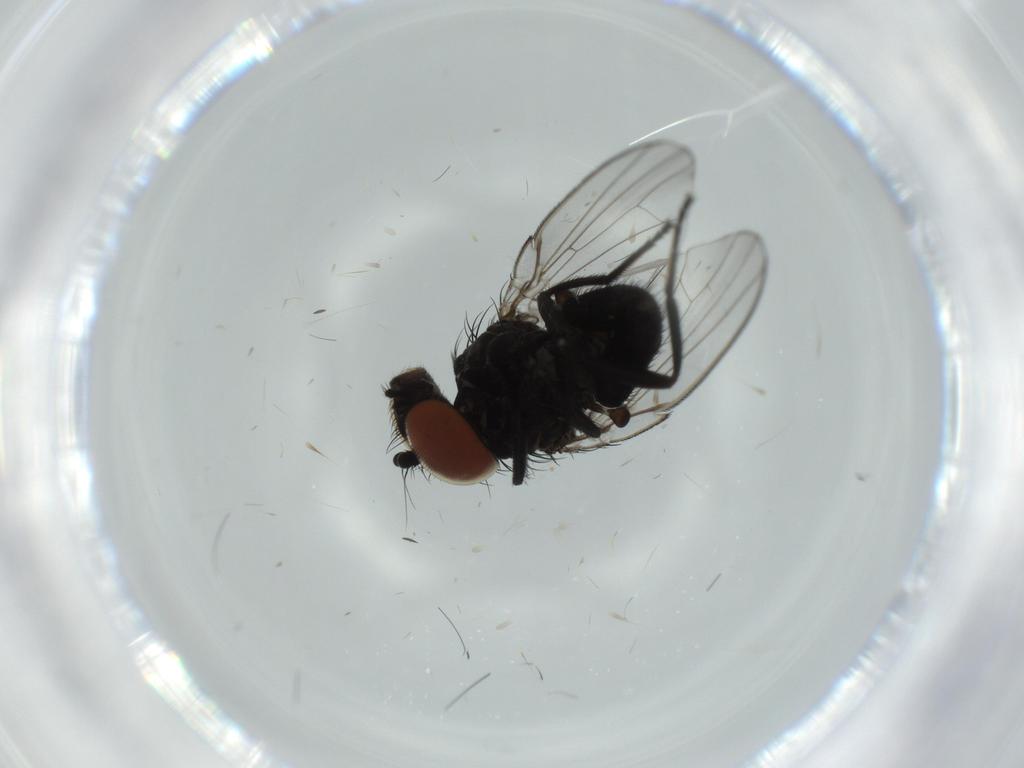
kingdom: Animalia
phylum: Arthropoda
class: Insecta
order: Diptera
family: Milichiidae
